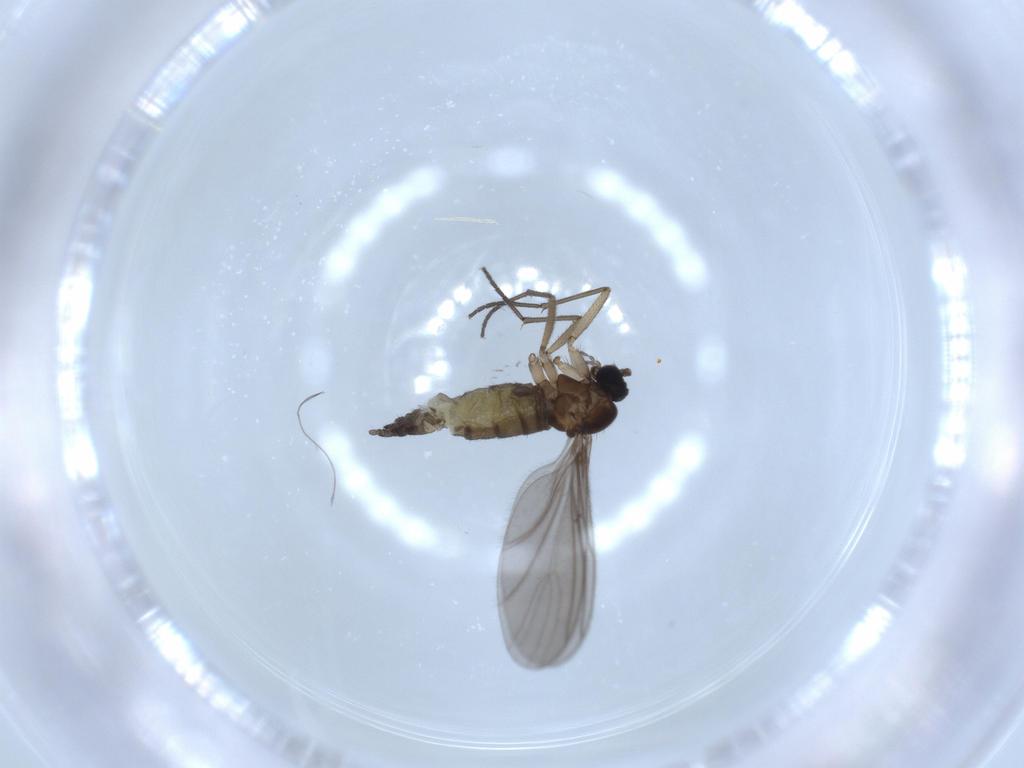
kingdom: Animalia
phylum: Arthropoda
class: Insecta
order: Diptera
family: Sciaridae
